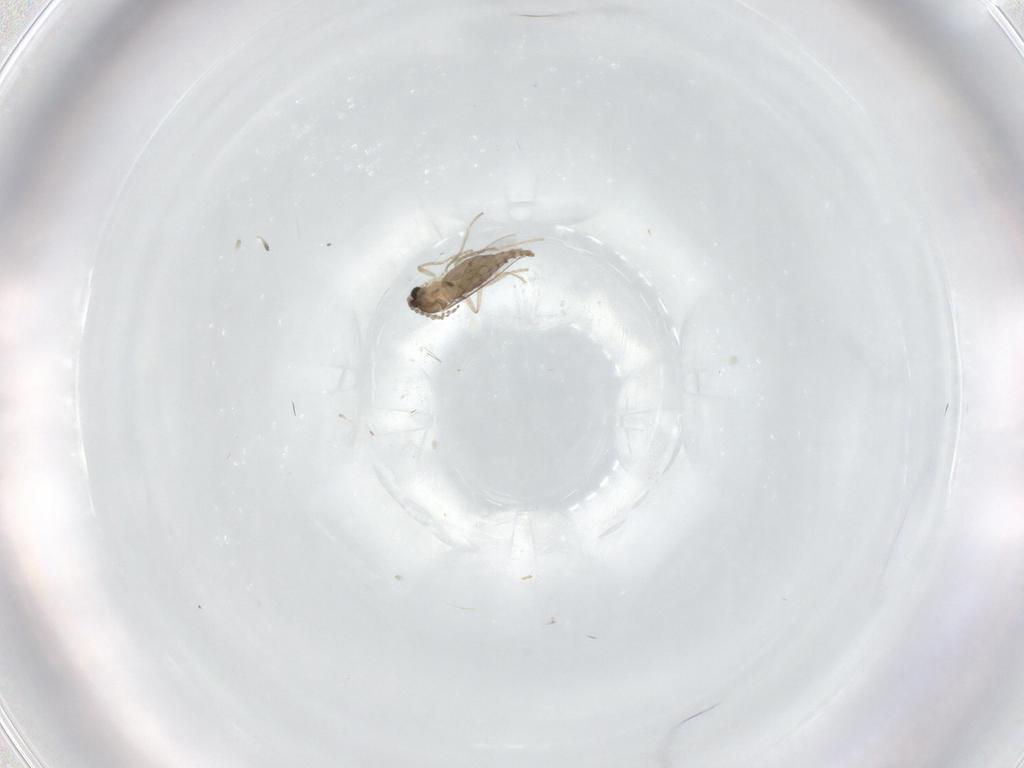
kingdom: Animalia
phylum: Arthropoda
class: Insecta
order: Diptera
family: Cecidomyiidae
